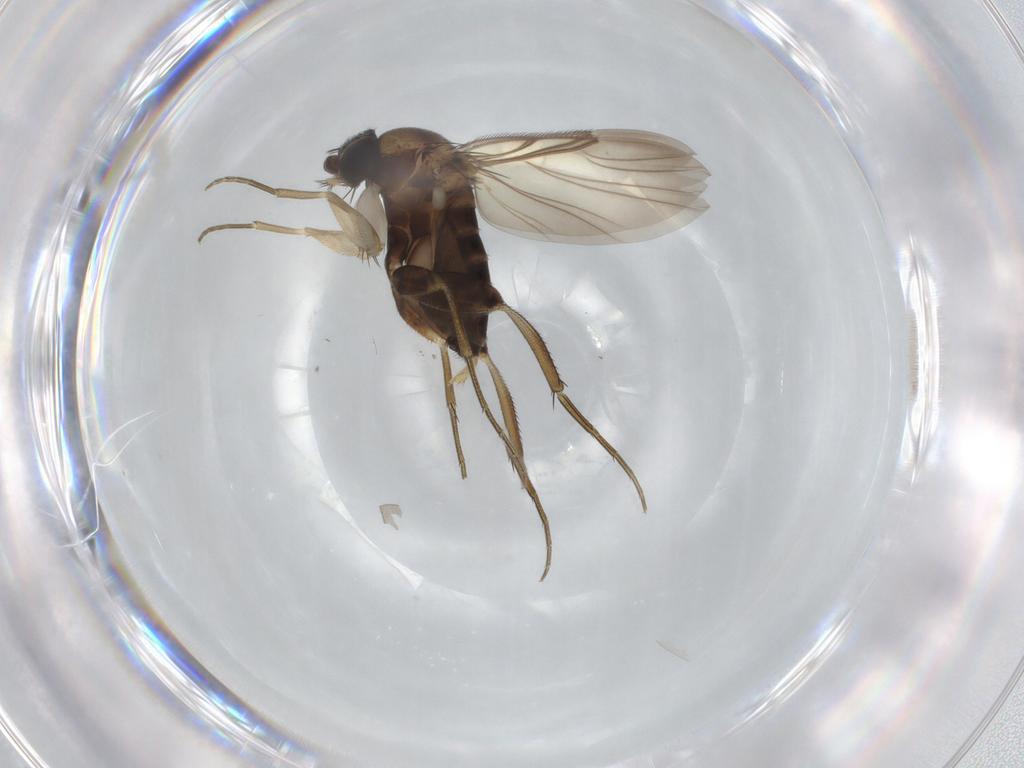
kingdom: Animalia
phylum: Arthropoda
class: Insecta
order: Diptera
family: Phoridae
